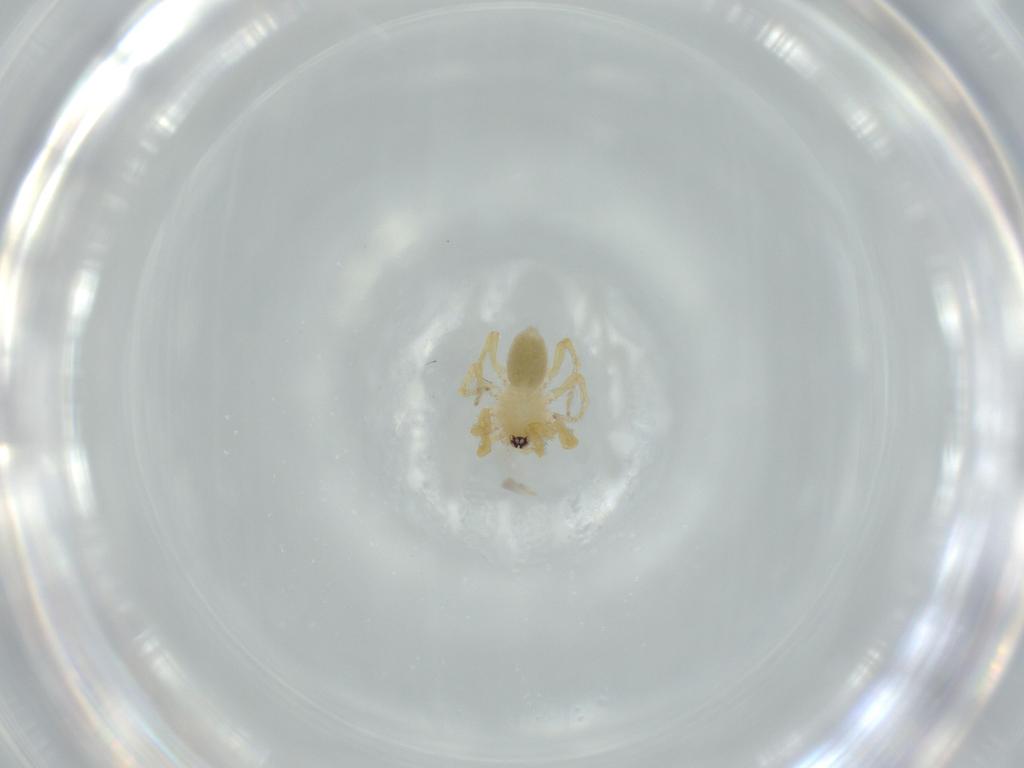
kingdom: Animalia
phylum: Arthropoda
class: Arachnida
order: Araneae
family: Oonopidae
